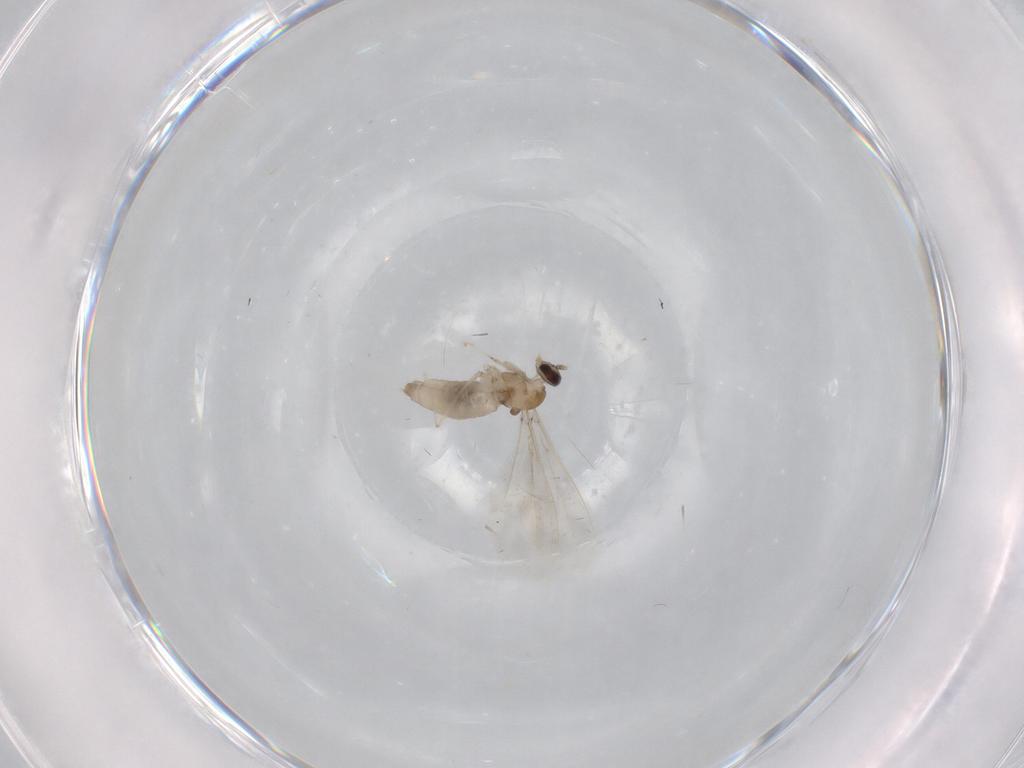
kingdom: Animalia
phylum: Arthropoda
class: Insecta
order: Diptera
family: Cecidomyiidae
